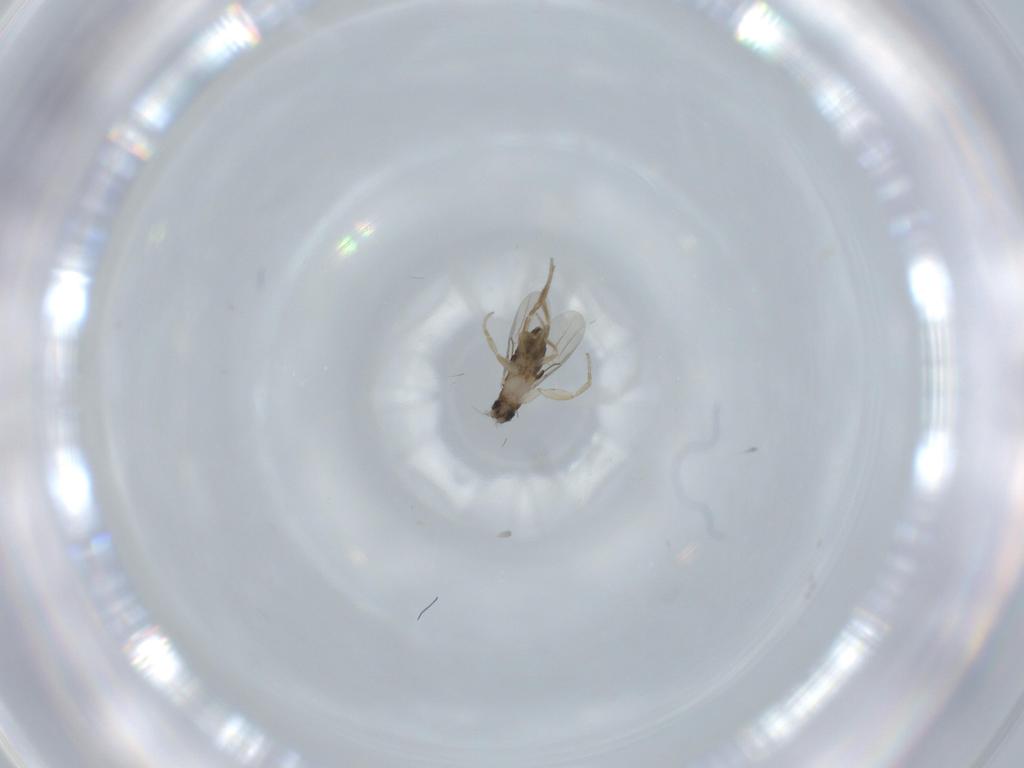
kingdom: Animalia
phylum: Arthropoda
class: Insecta
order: Diptera
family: Phoridae
